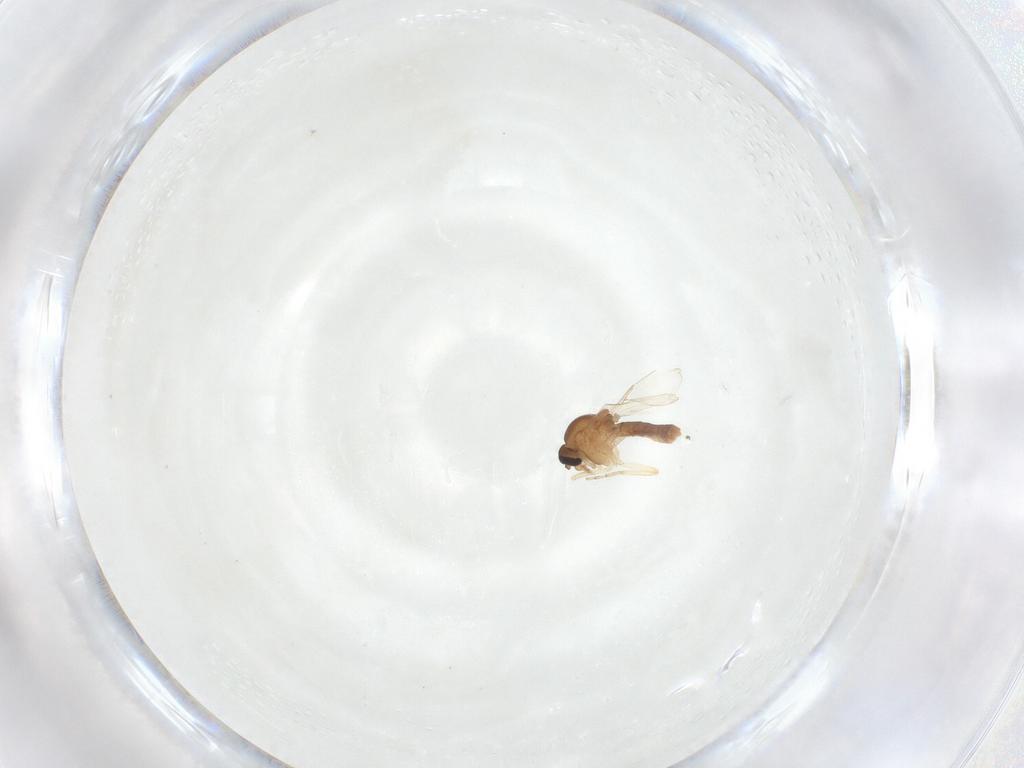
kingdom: Animalia
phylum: Arthropoda
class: Insecta
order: Diptera
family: Ceratopogonidae
